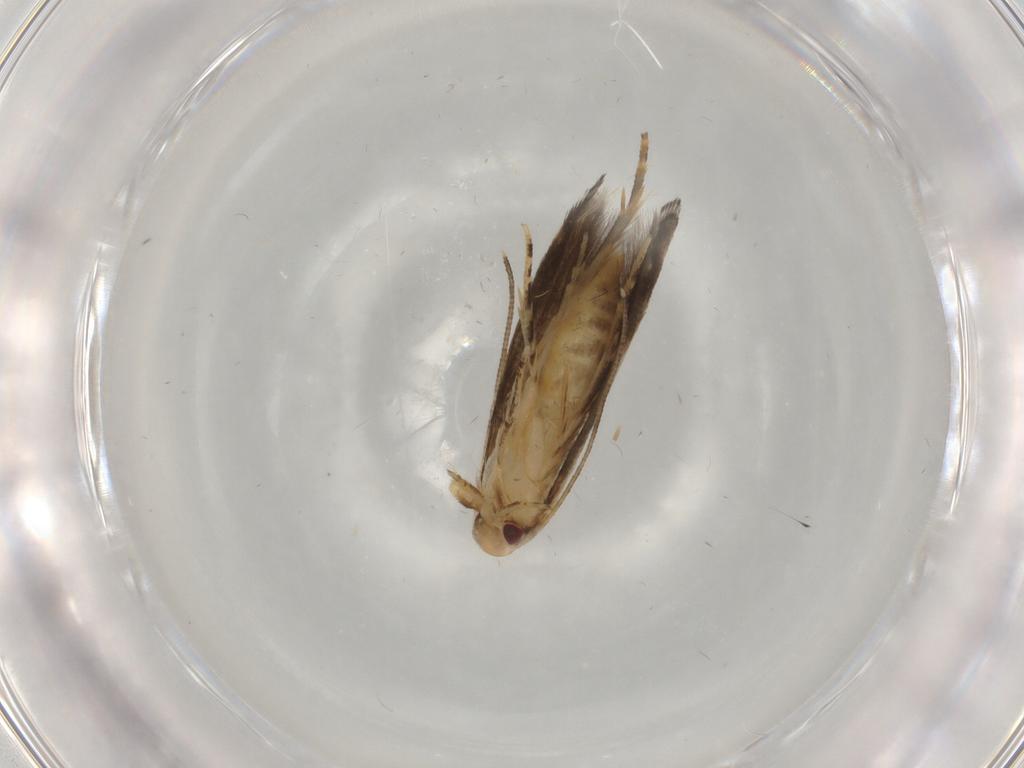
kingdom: Animalia
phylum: Arthropoda
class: Insecta
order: Lepidoptera
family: Momphidae
